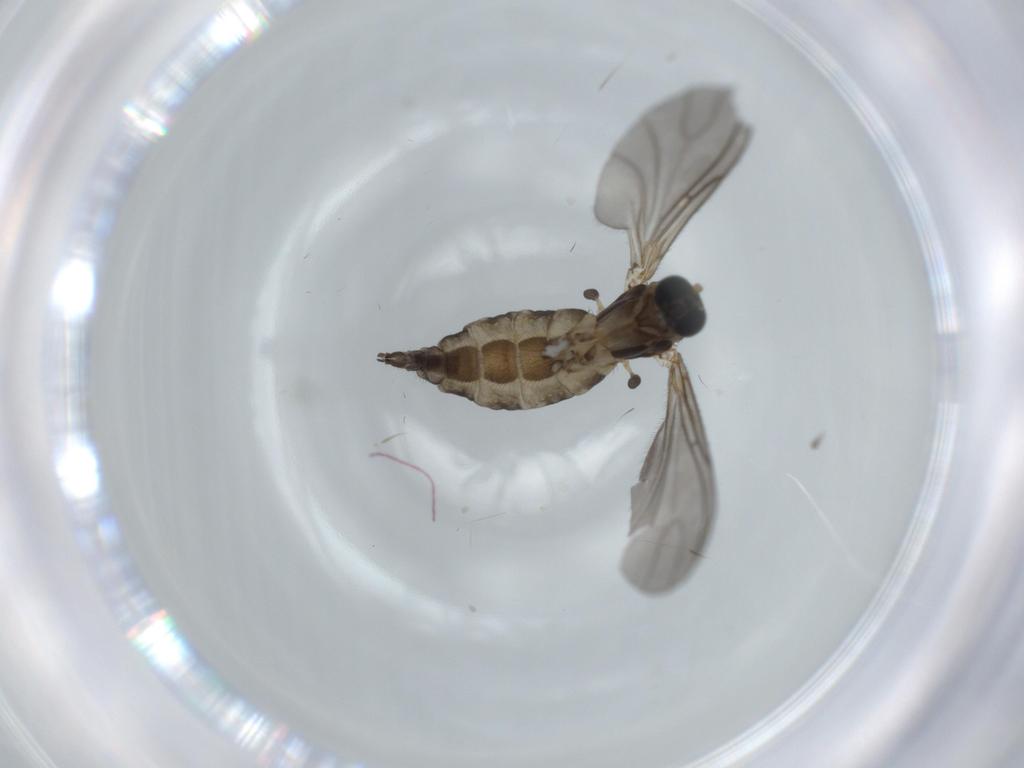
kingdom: Animalia
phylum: Arthropoda
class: Insecta
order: Diptera
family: Sciaridae
